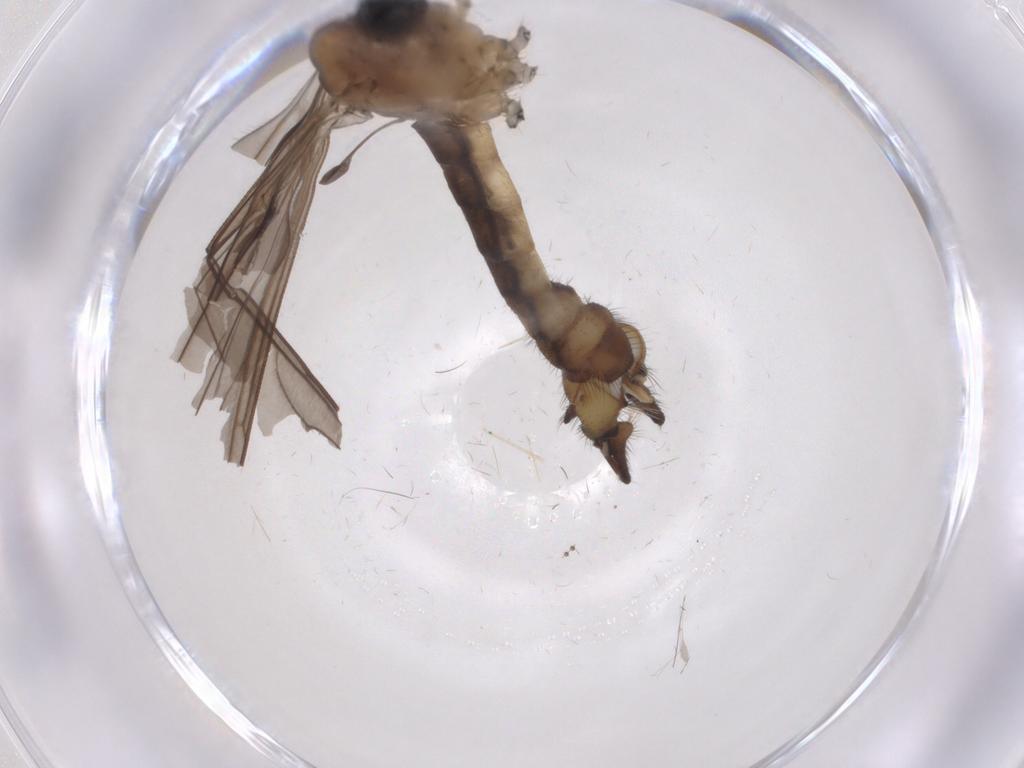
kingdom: Animalia
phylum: Arthropoda
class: Insecta
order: Diptera
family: Limoniidae
